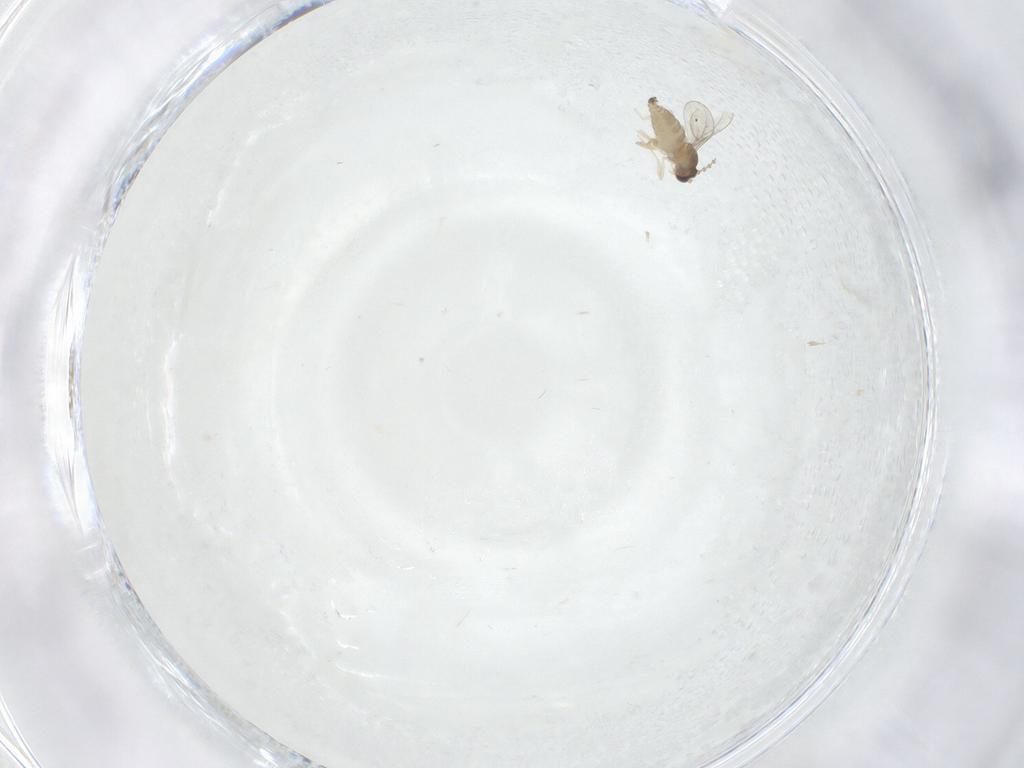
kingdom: Animalia
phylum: Arthropoda
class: Insecta
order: Diptera
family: Cecidomyiidae
